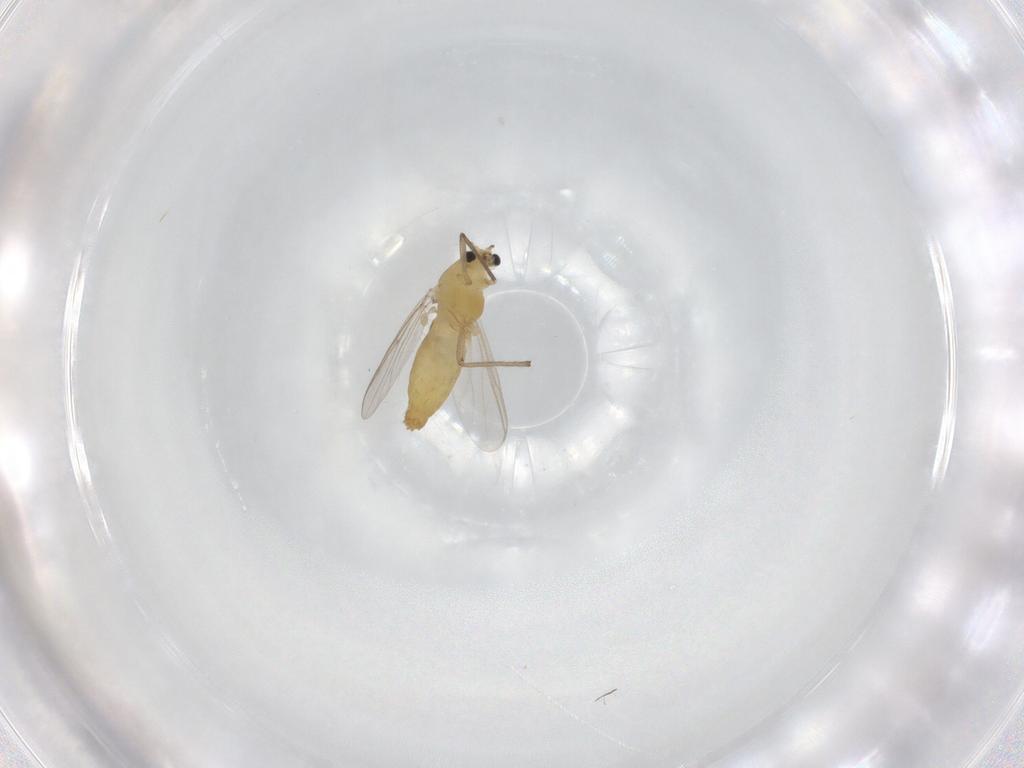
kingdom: Animalia
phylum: Arthropoda
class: Insecta
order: Diptera
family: Chironomidae
